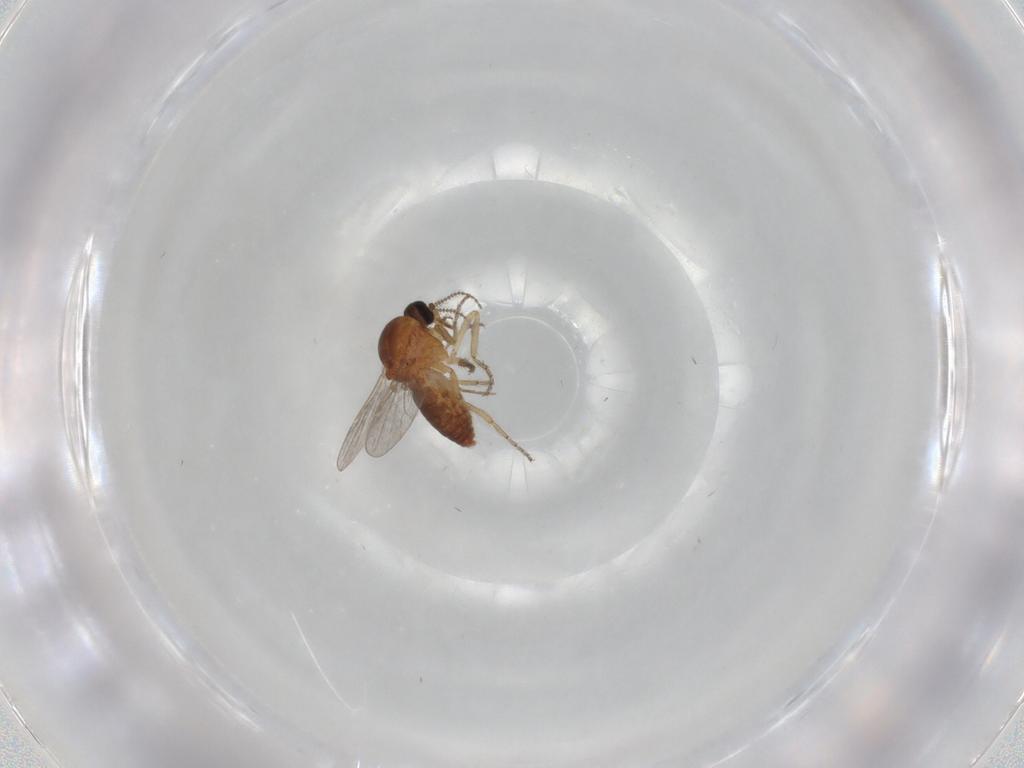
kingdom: Animalia
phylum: Arthropoda
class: Insecta
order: Diptera
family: Ceratopogonidae
